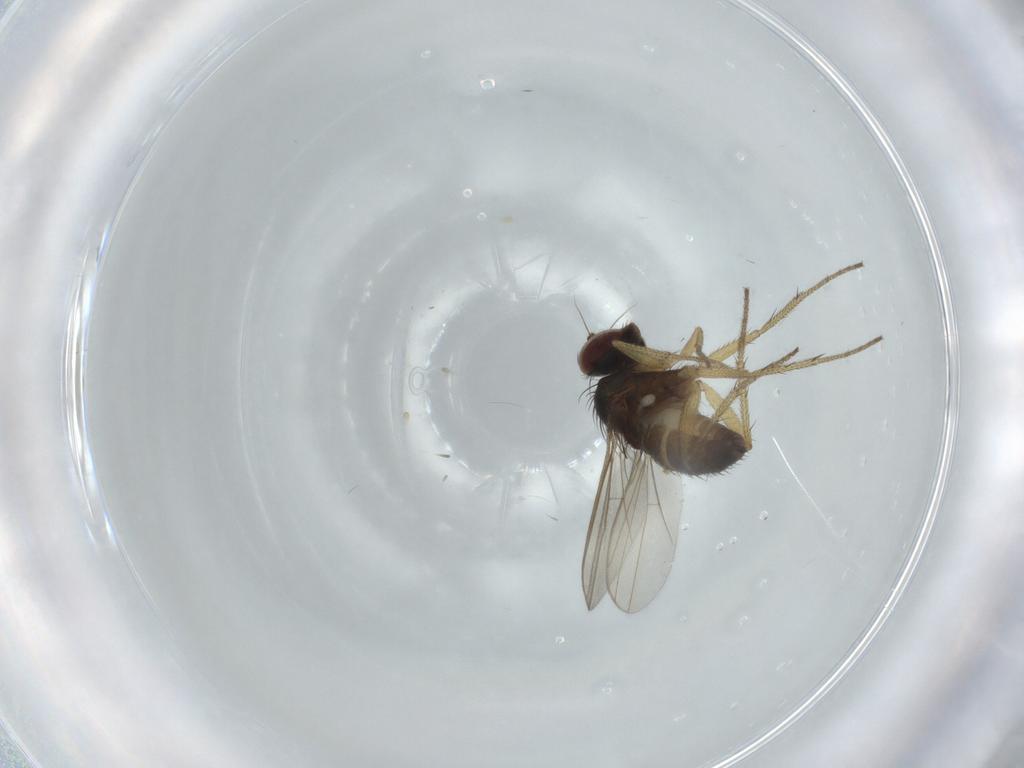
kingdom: Animalia
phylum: Arthropoda
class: Insecta
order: Diptera
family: Dolichopodidae
